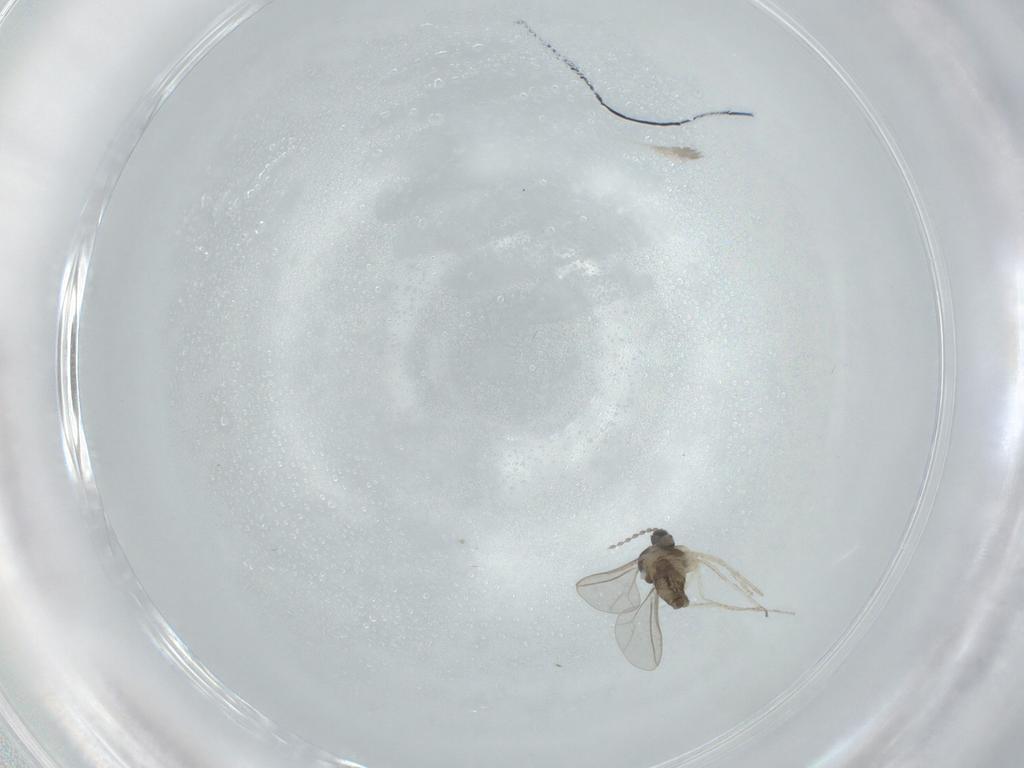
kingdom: Animalia
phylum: Arthropoda
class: Insecta
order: Diptera
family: Cecidomyiidae
